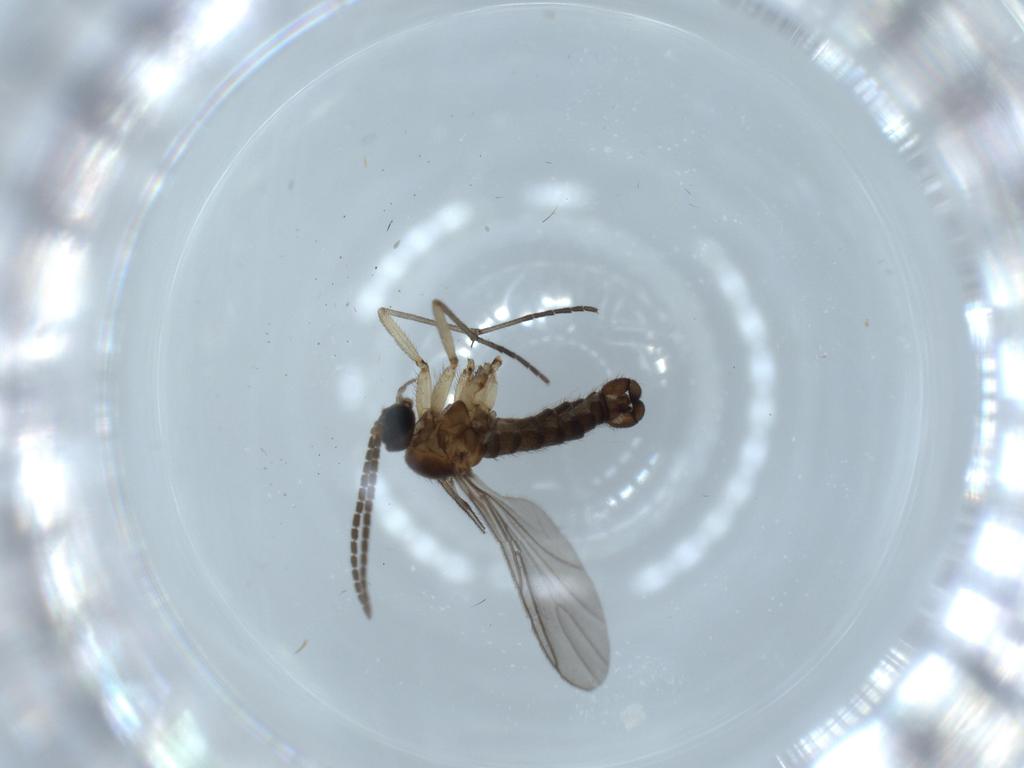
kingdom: Animalia
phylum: Arthropoda
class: Insecta
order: Diptera
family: Sciaridae
